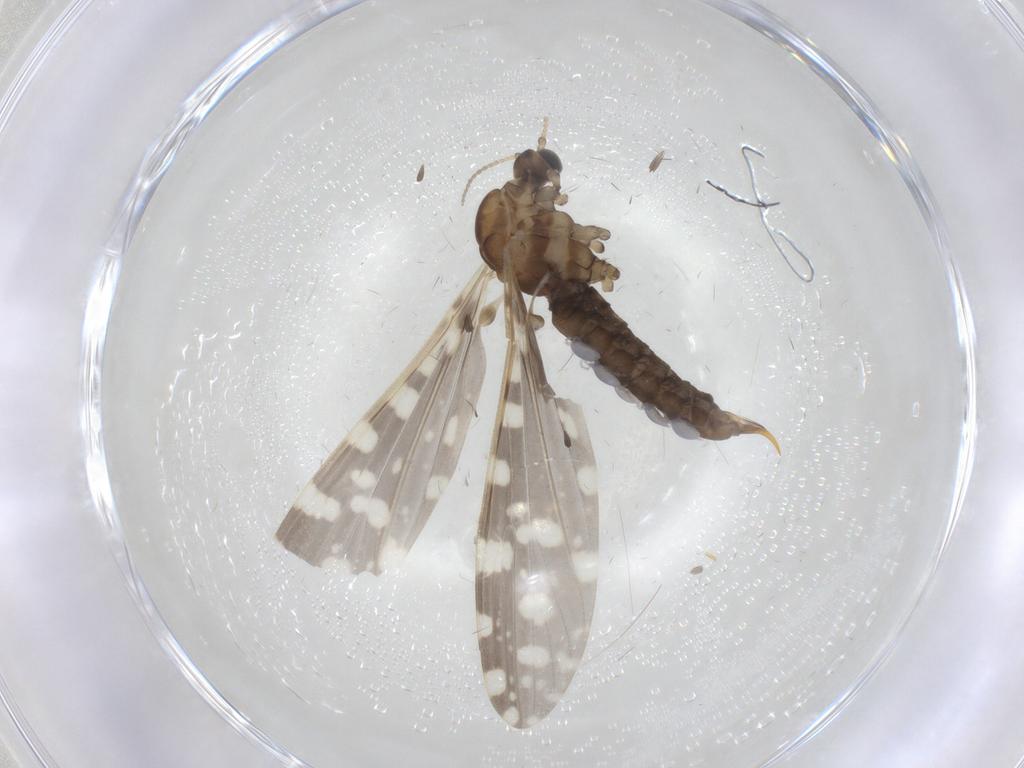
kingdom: Animalia
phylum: Arthropoda
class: Insecta
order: Diptera
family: Limoniidae
